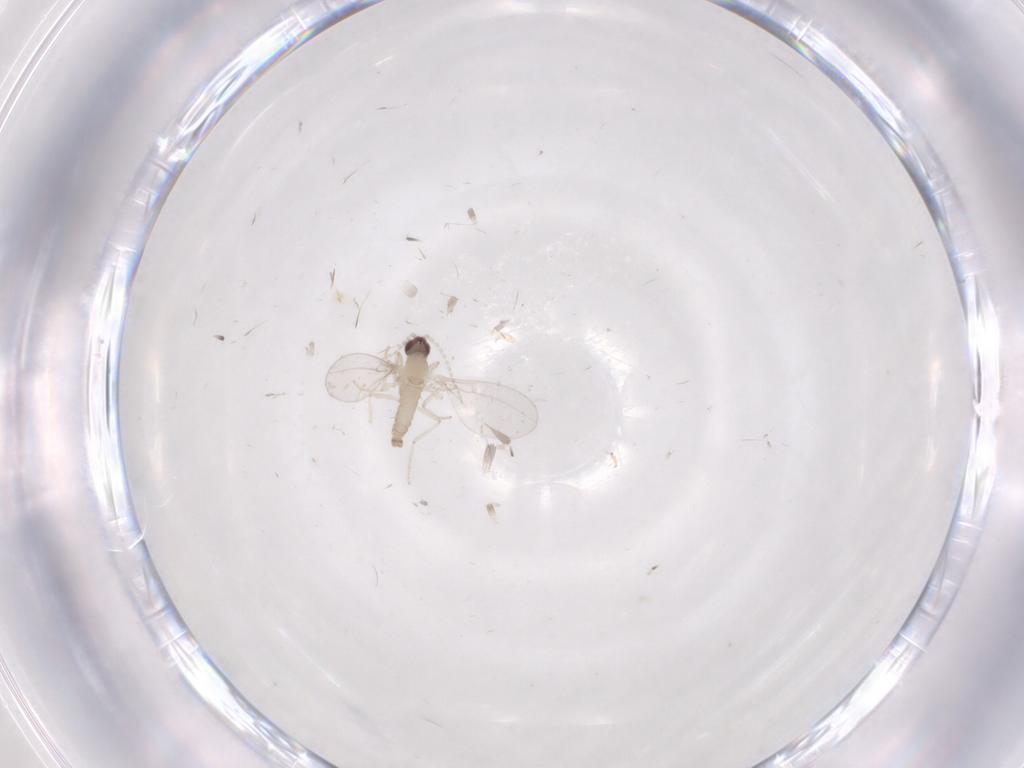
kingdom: Animalia
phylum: Arthropoda
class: Insecta
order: Diptera
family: Cecidomyiidae
